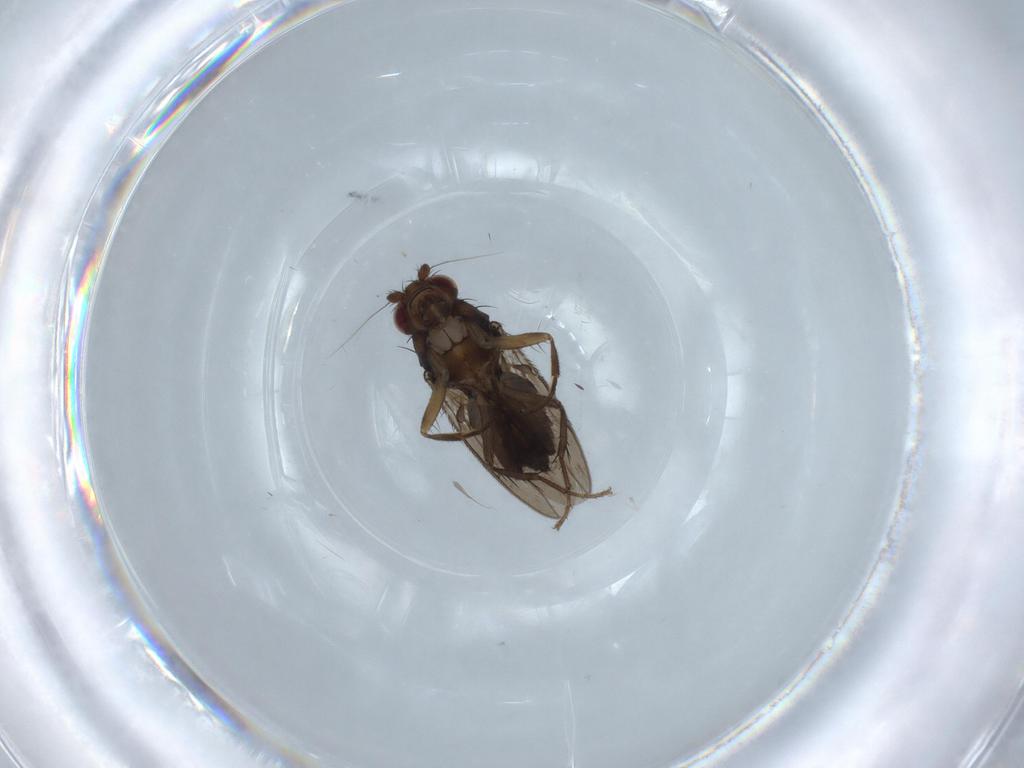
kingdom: Animalia
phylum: Arthropoda
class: Insecta
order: Diptera
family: Sphaeroceridae
